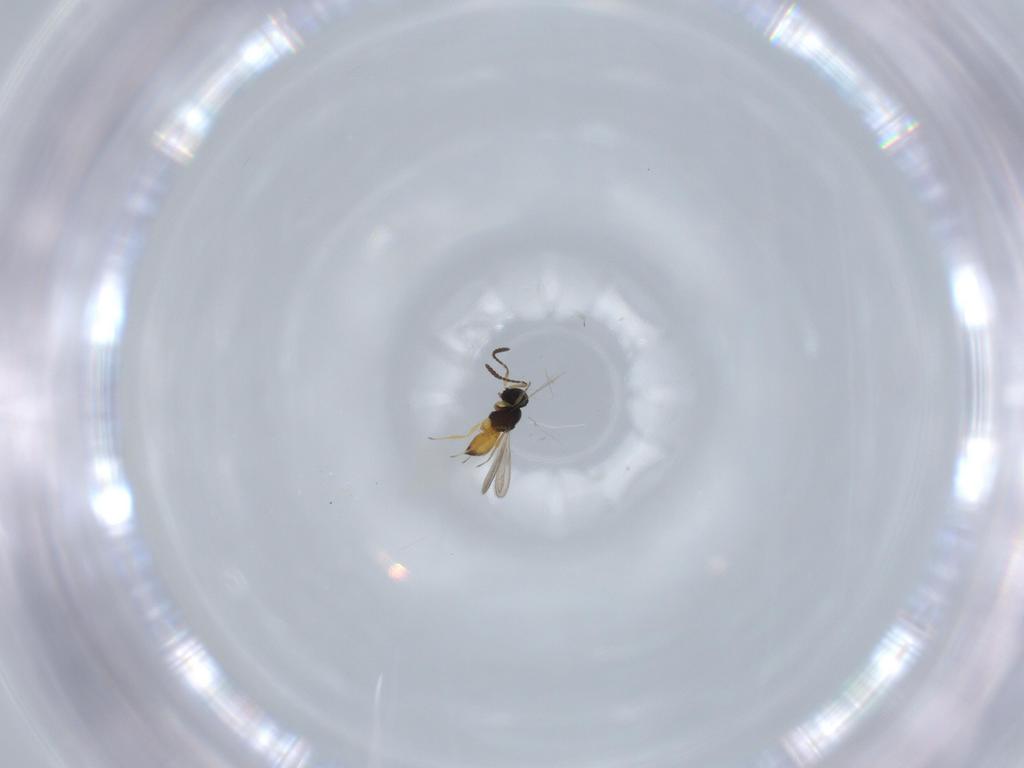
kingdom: Animalia
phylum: Arthropoda
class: Insecta
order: Hymenoptera
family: Scelionidae
